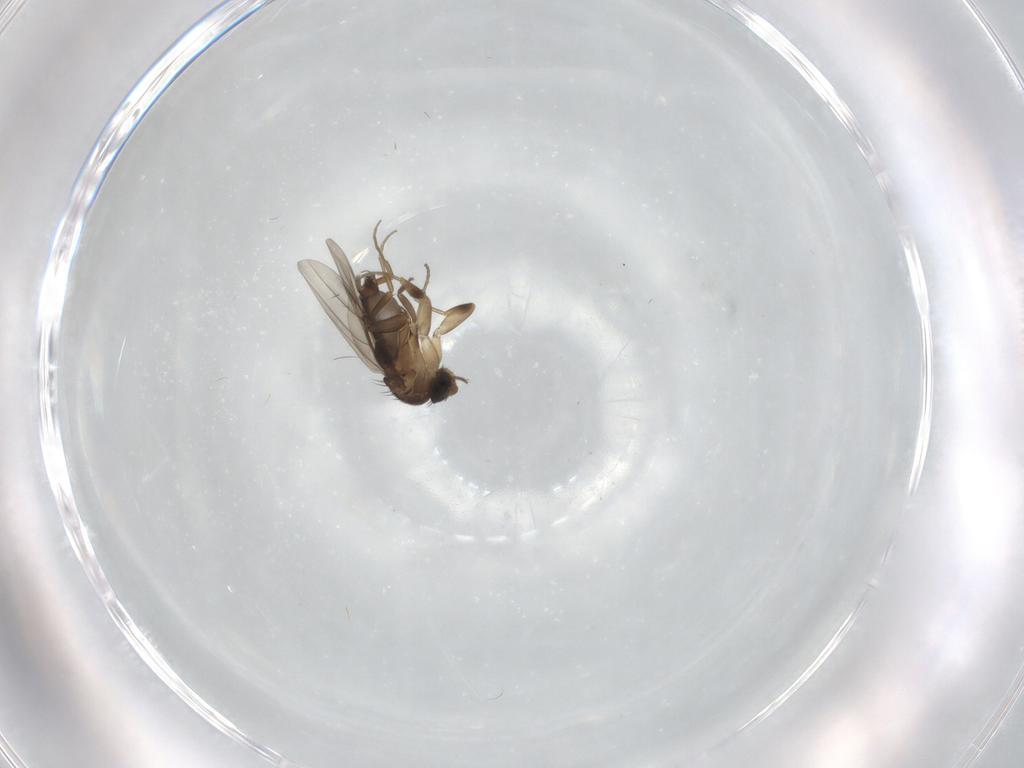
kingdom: Animalia
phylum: Arthropoda
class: Insecta
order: Diptera
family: Phoridae
